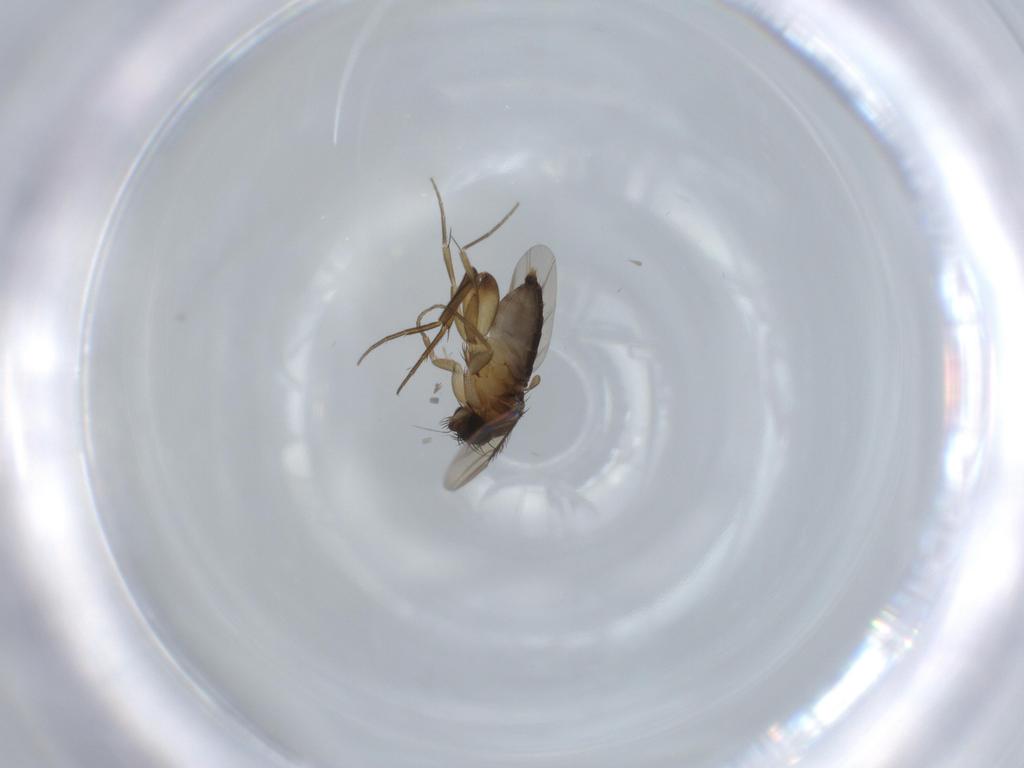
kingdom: Animalia
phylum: Arthropoda
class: Insecta
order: Diptera
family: Phoridae
